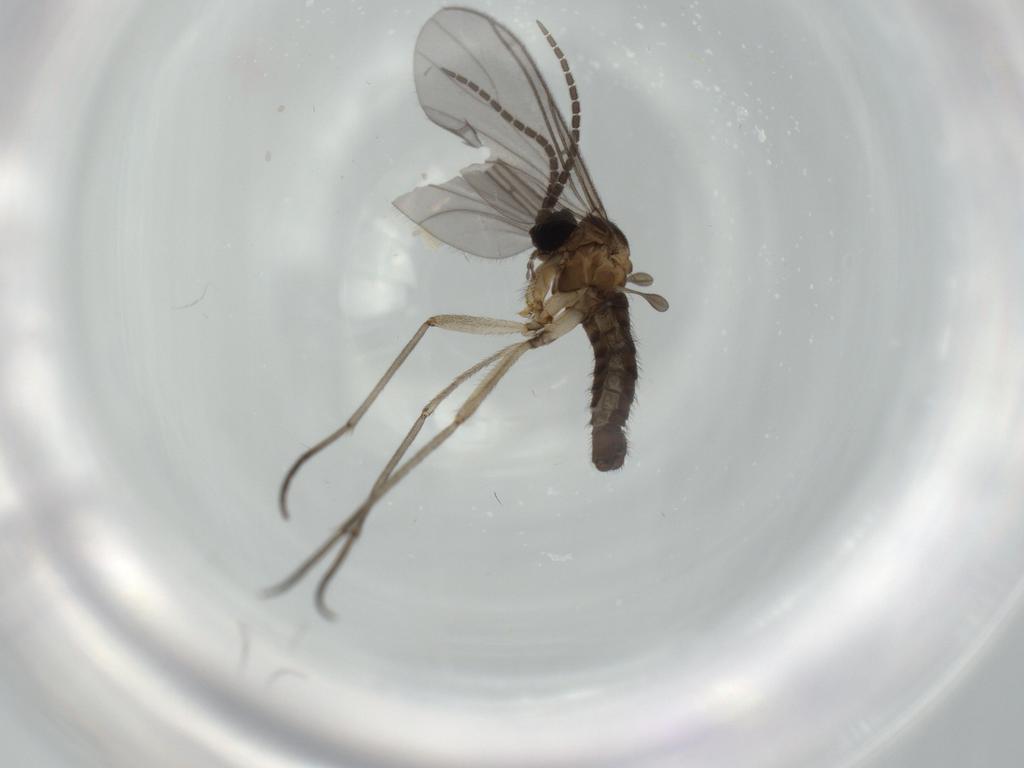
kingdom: Animalia
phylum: Arthropoda
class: Insecta
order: Diptera
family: Sciaridae
